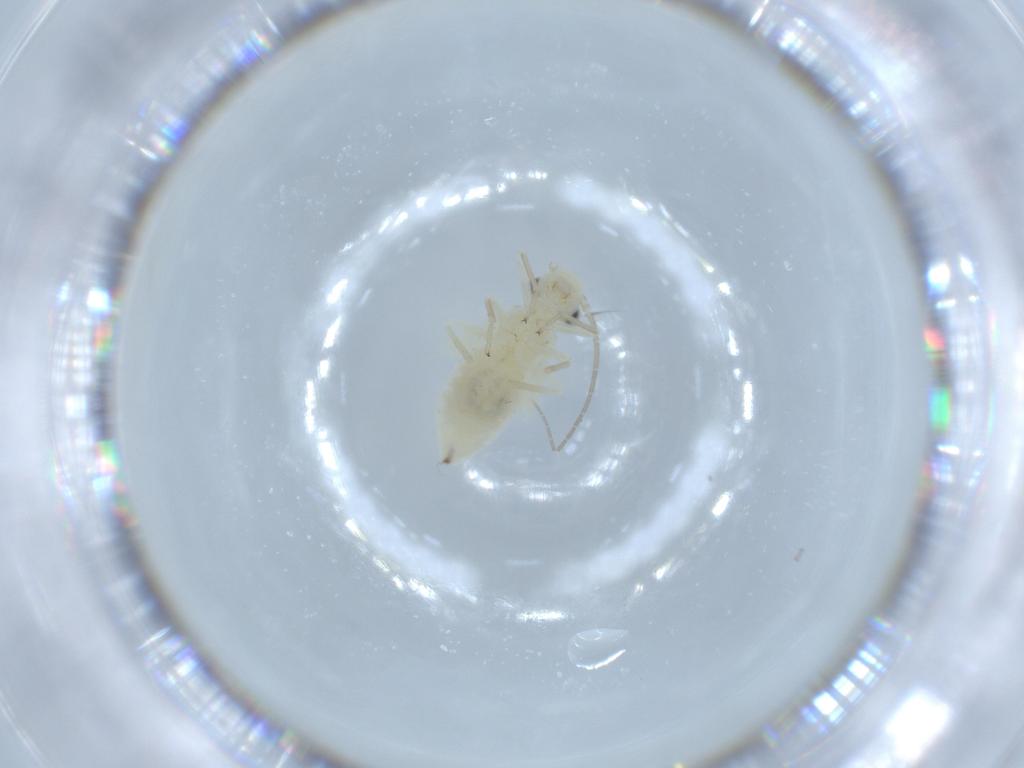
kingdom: Animalia
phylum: Arthropoda
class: Insecta
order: Psocodea
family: Caeciliusidae
